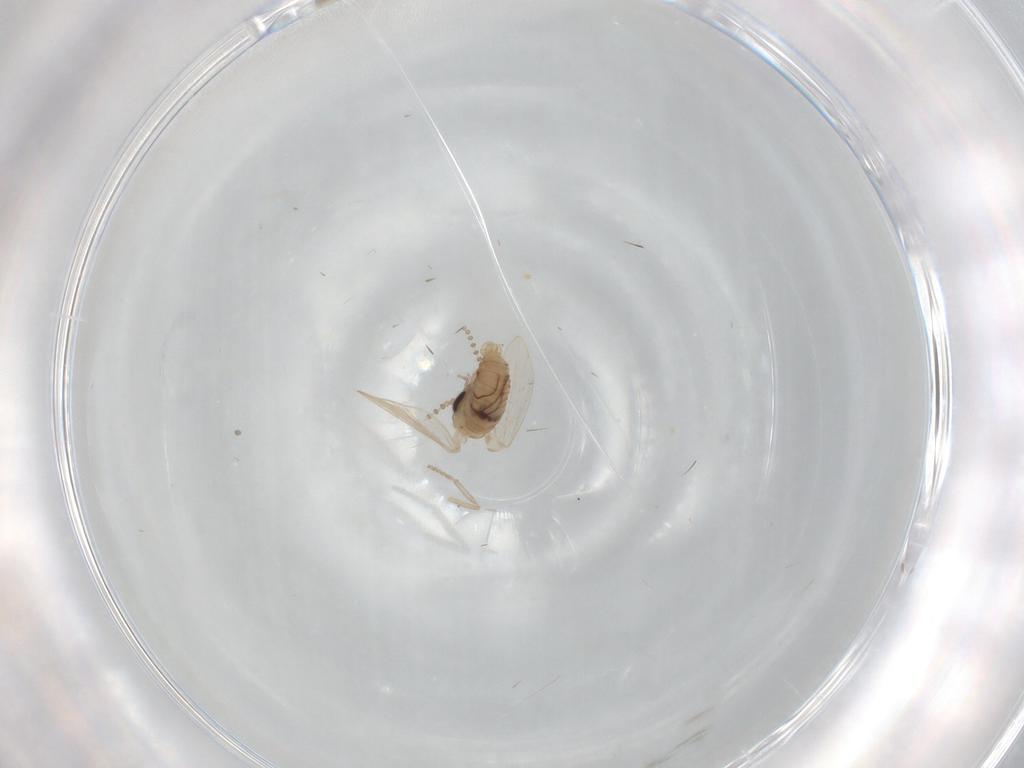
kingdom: Animalia
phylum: Arthropoda
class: Insecta
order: Diptera
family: Psychodidae
